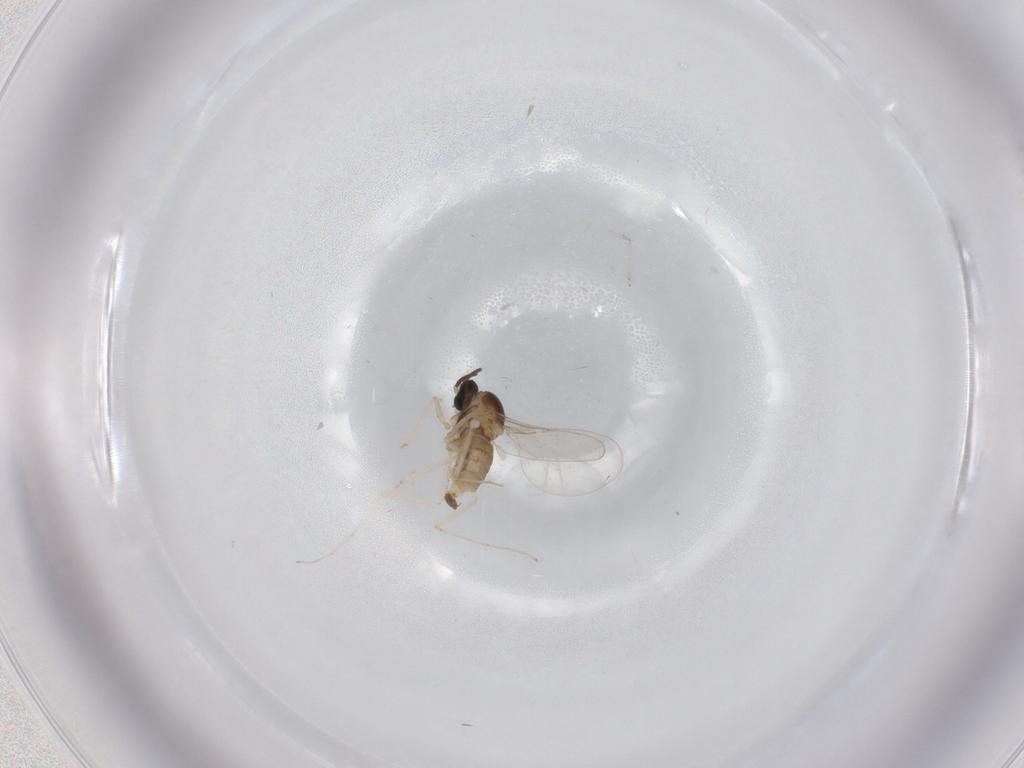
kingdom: Animalia
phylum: Arthropoda
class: Insecta
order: Diptera
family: Cecidomyiidae
